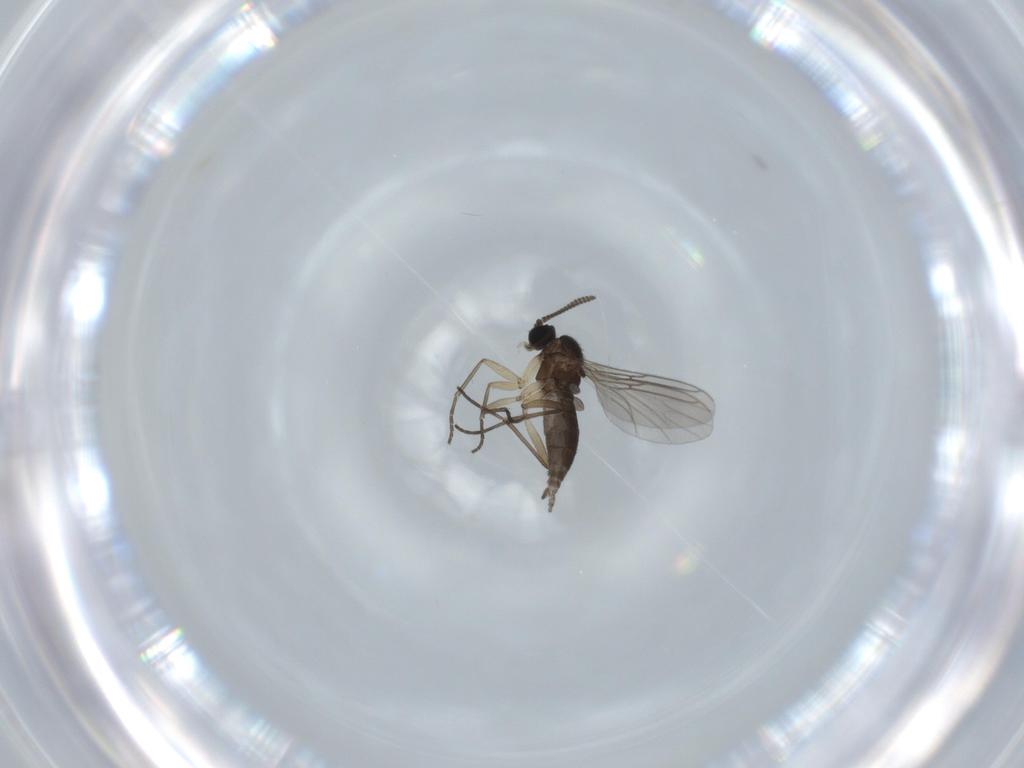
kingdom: Animalia
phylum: Arthropoda
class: Insecta
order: Diptera
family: Sciaridae
